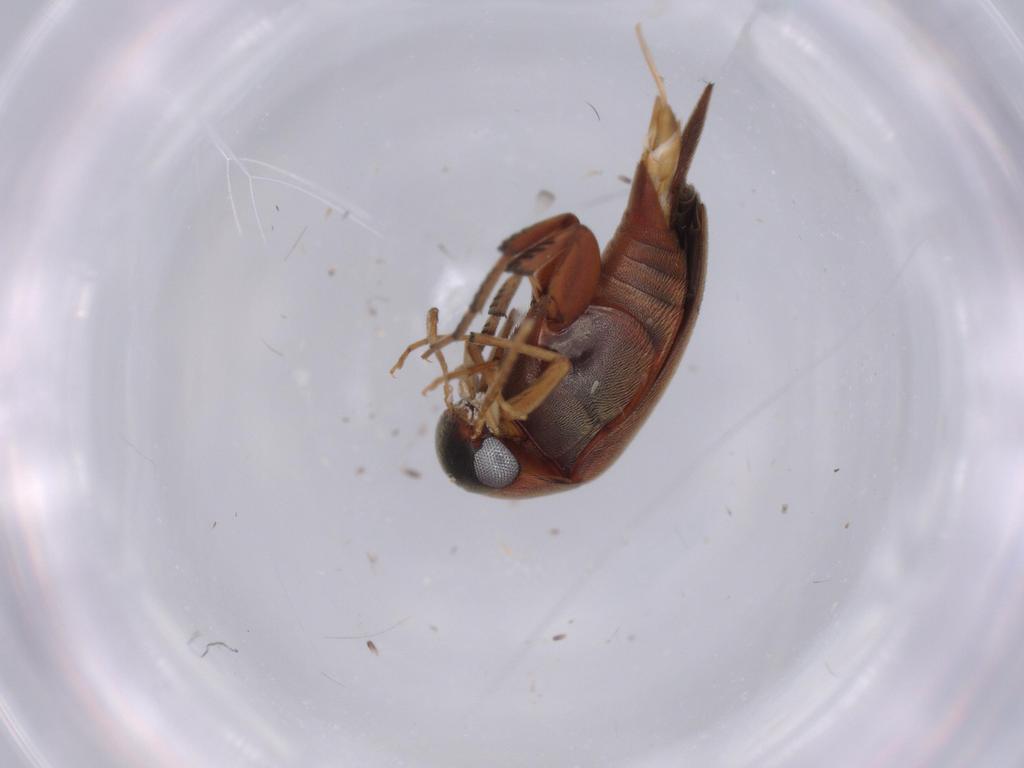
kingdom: Animalia
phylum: Arthropoda
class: Insecta
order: Coleoptera
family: Mordellidae
